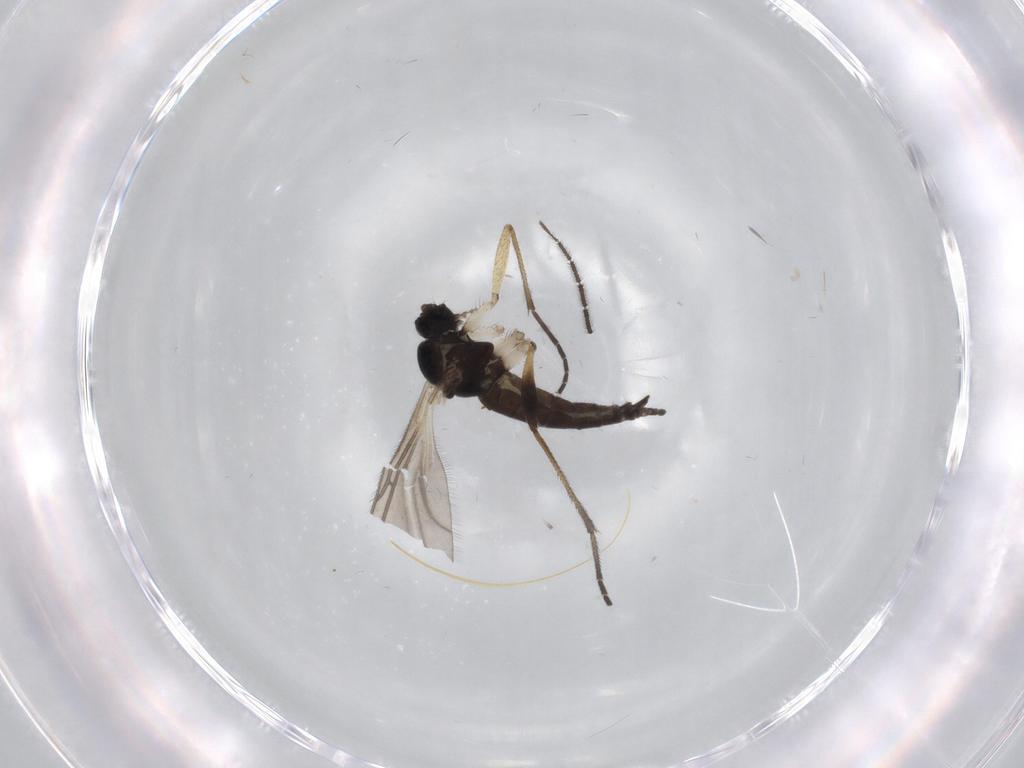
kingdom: Animalia
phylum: Arthropoda
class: Insecta
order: Diptera
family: Sciaridae
